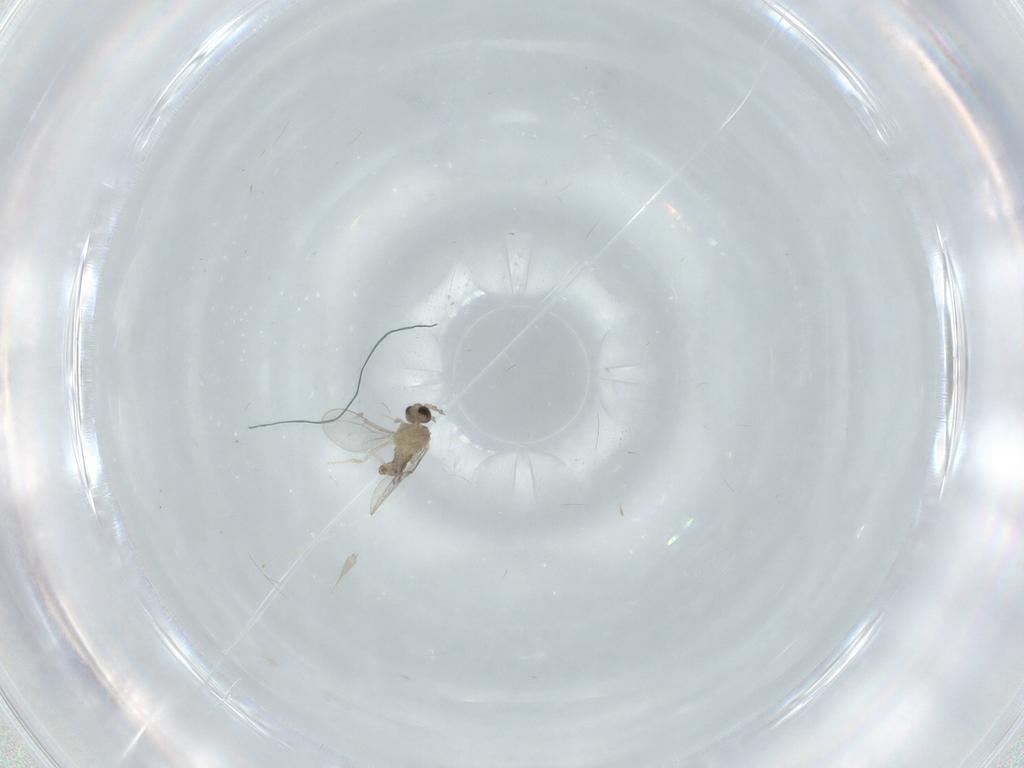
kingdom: Animalia
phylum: Arthropoda
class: Insecta
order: Diptera
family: Cecidomyiidae
